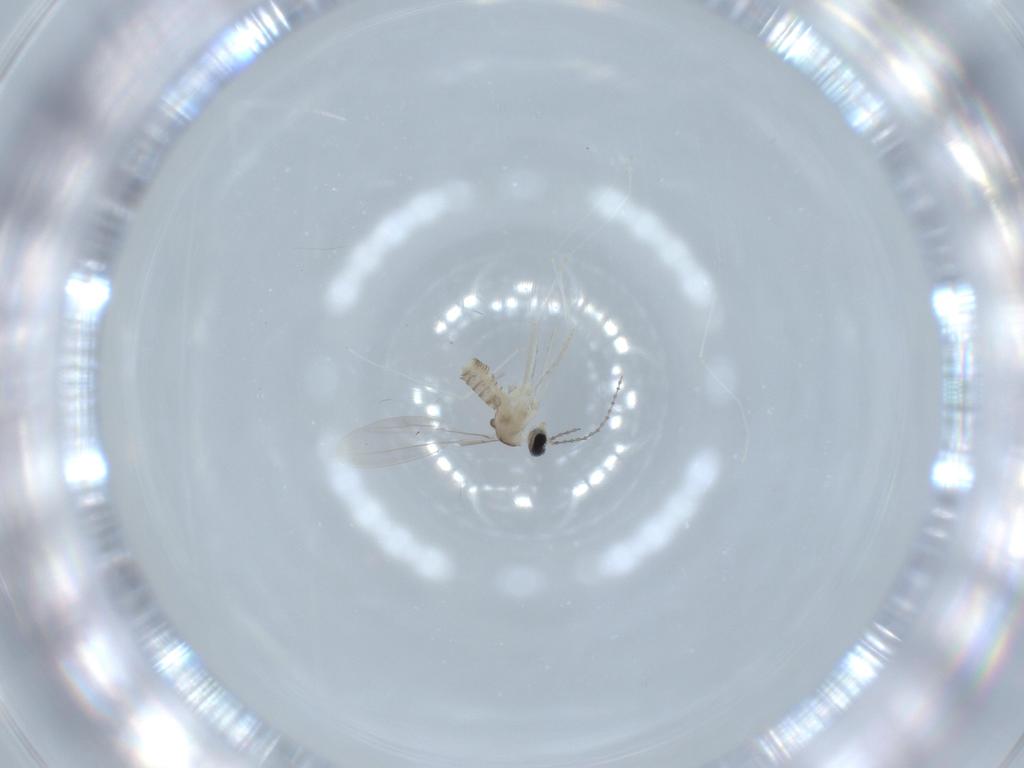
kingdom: Animalia
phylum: Arthropoda
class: Insecta
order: Diptera
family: Cecidomyiidae
